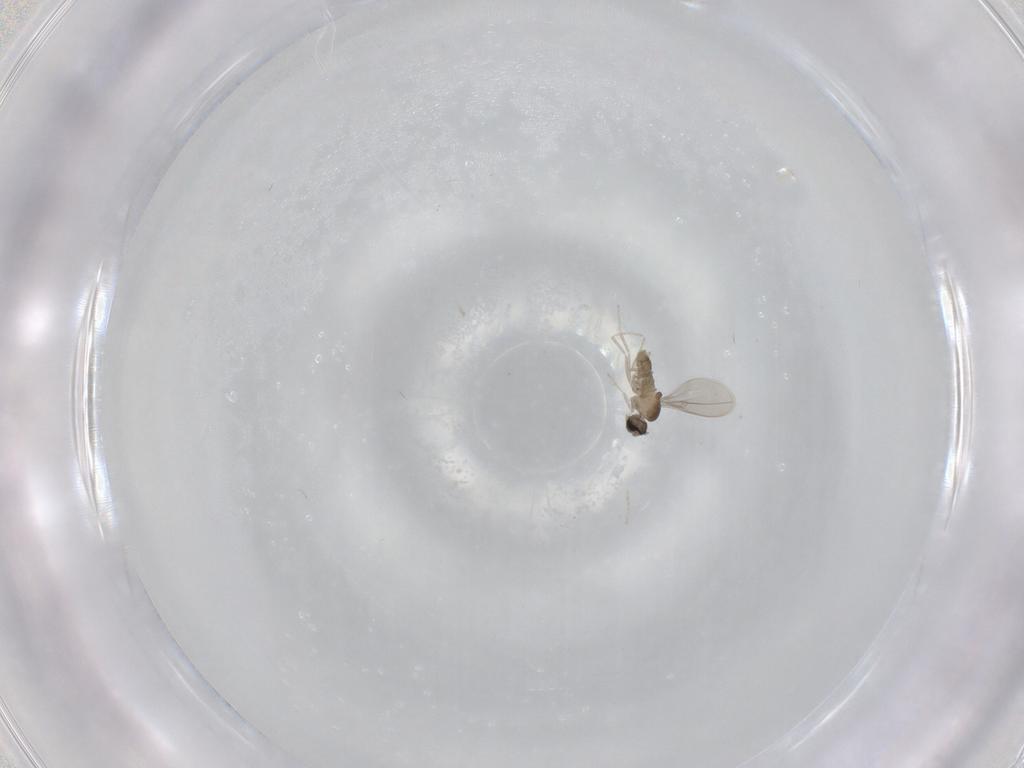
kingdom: Animalia
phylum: Arthropoda
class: Insecta
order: Diptera
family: Cecidomyiidae
